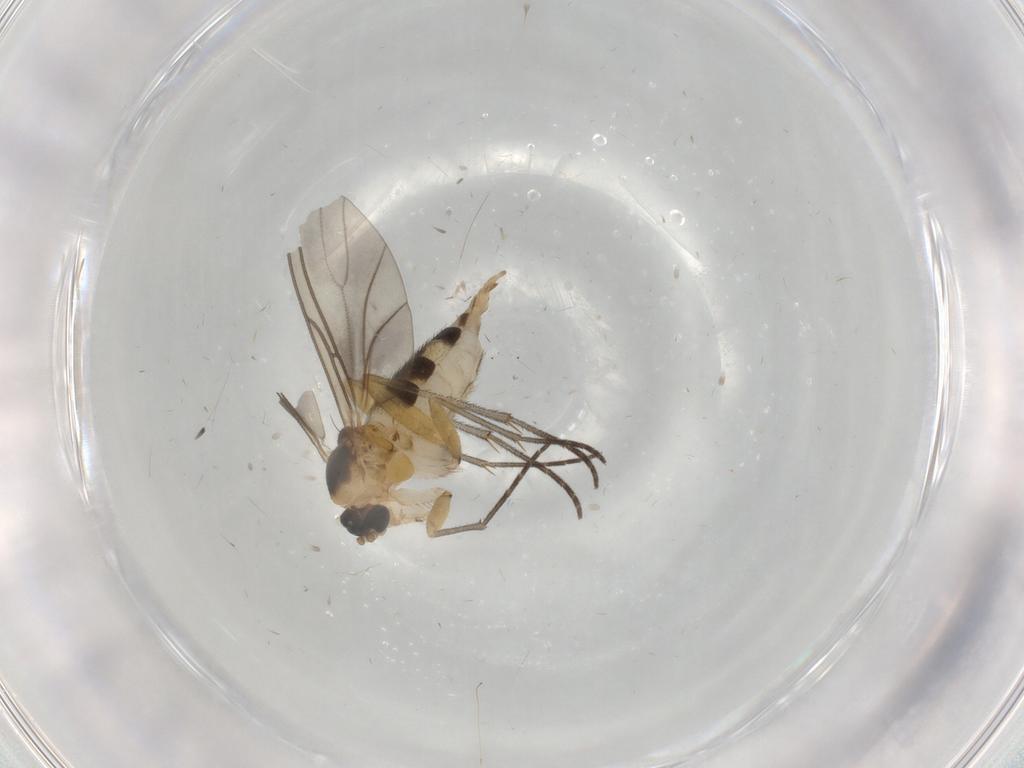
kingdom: Animalia
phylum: Arthropoda
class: Insecta
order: Diptera
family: Sciaridae
